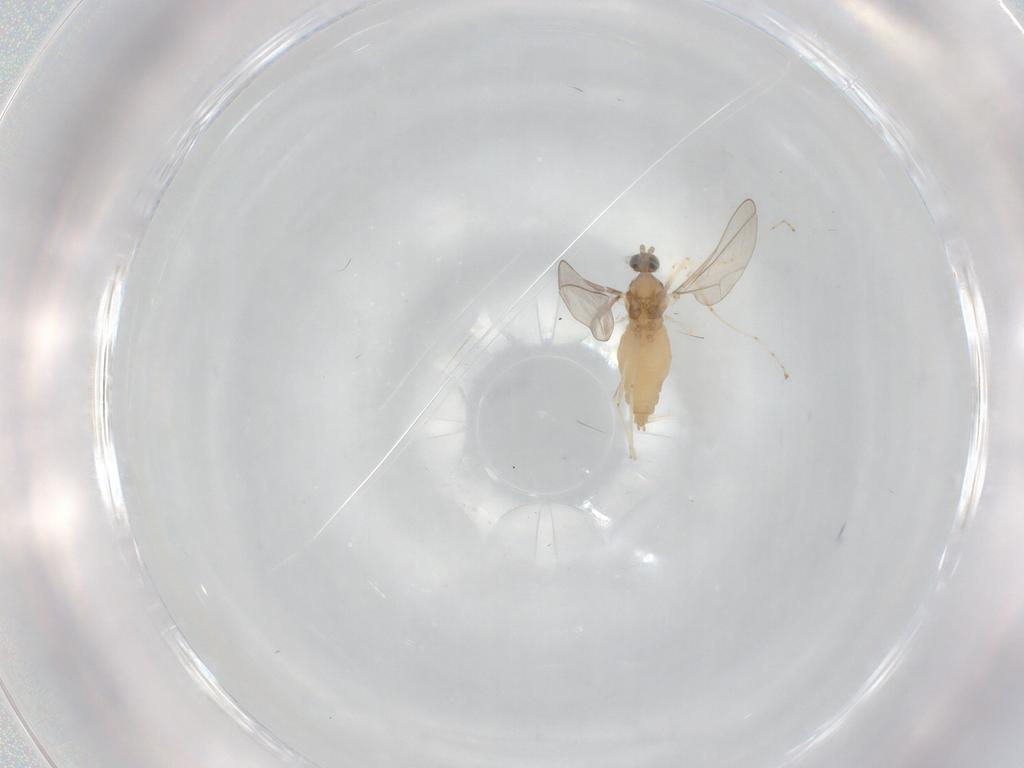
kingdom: Animalia
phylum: Arthropoda
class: Insecta
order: Diptera
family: Cecidomyiidae
